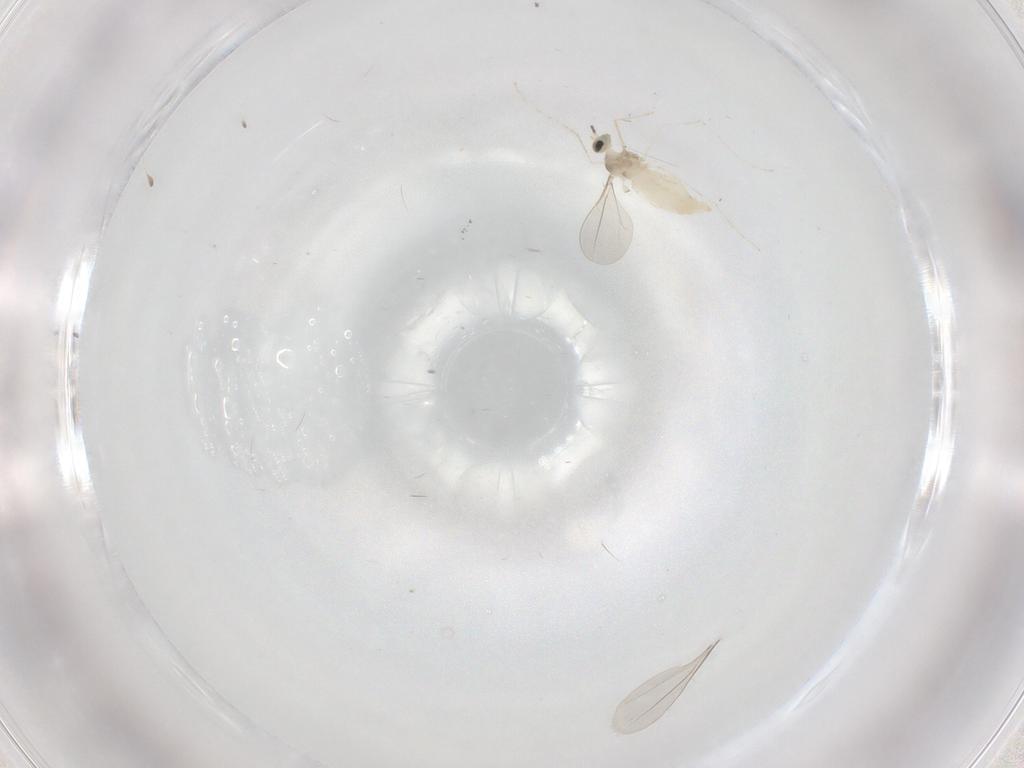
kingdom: Animalia
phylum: Arthropoda
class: Insecta
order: Diptera
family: Cecidomyiidae
